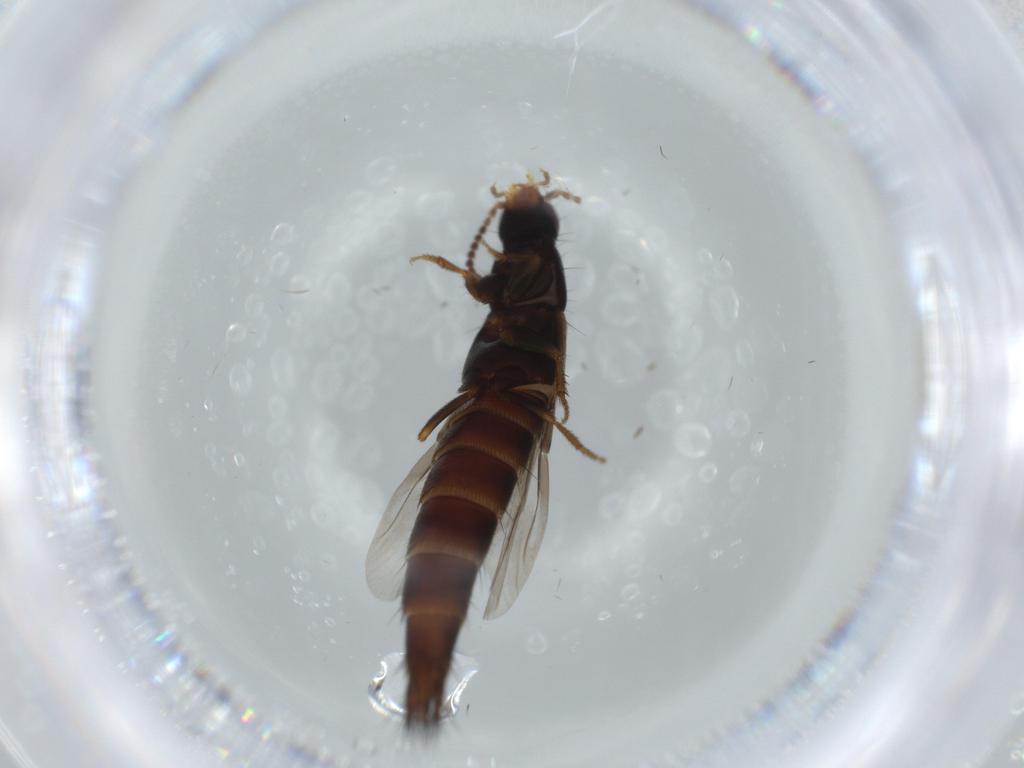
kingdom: Animalia
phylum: Arthropoda
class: Insecta
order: Coleoptera
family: Staphylinidae
